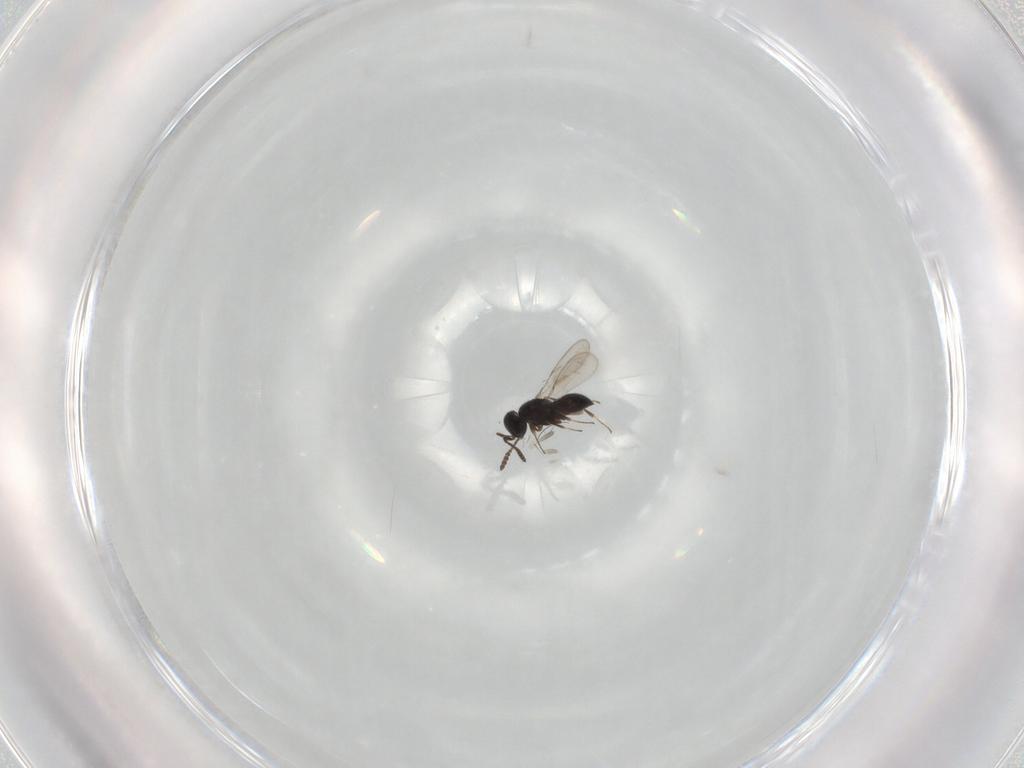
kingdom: Animalia
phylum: Arthropoda
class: Insecta
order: Hymenoptera
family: Scelionidae
